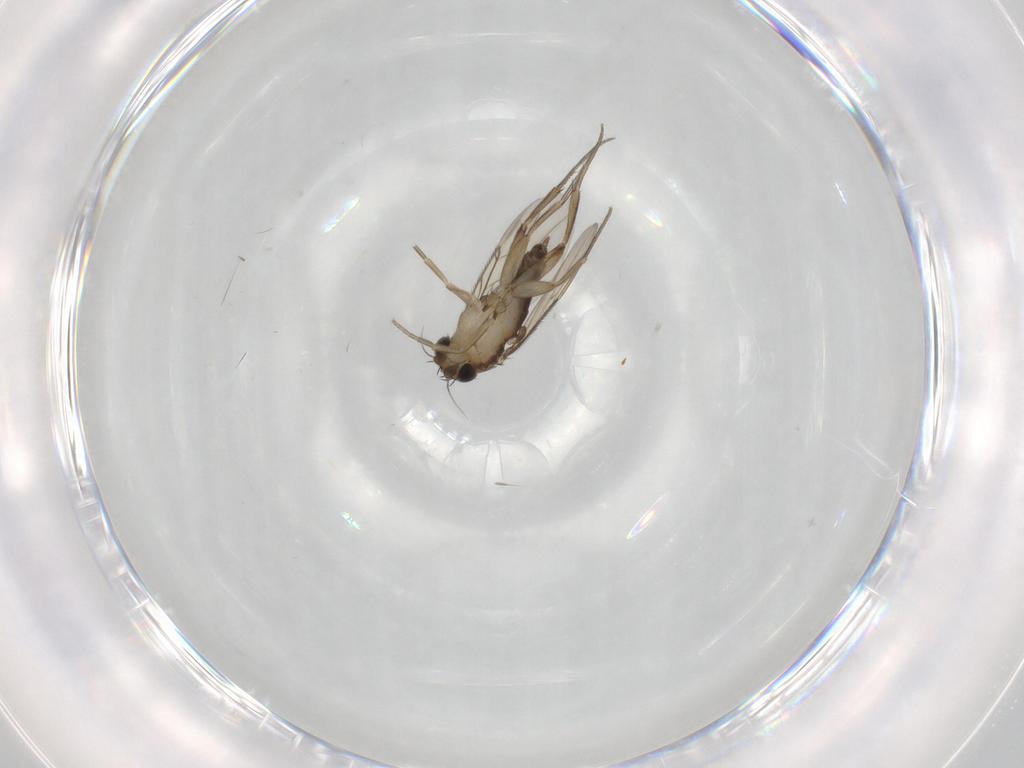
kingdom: Animalia
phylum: Arthropoda
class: Insecta
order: Diptera
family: Phoridae
